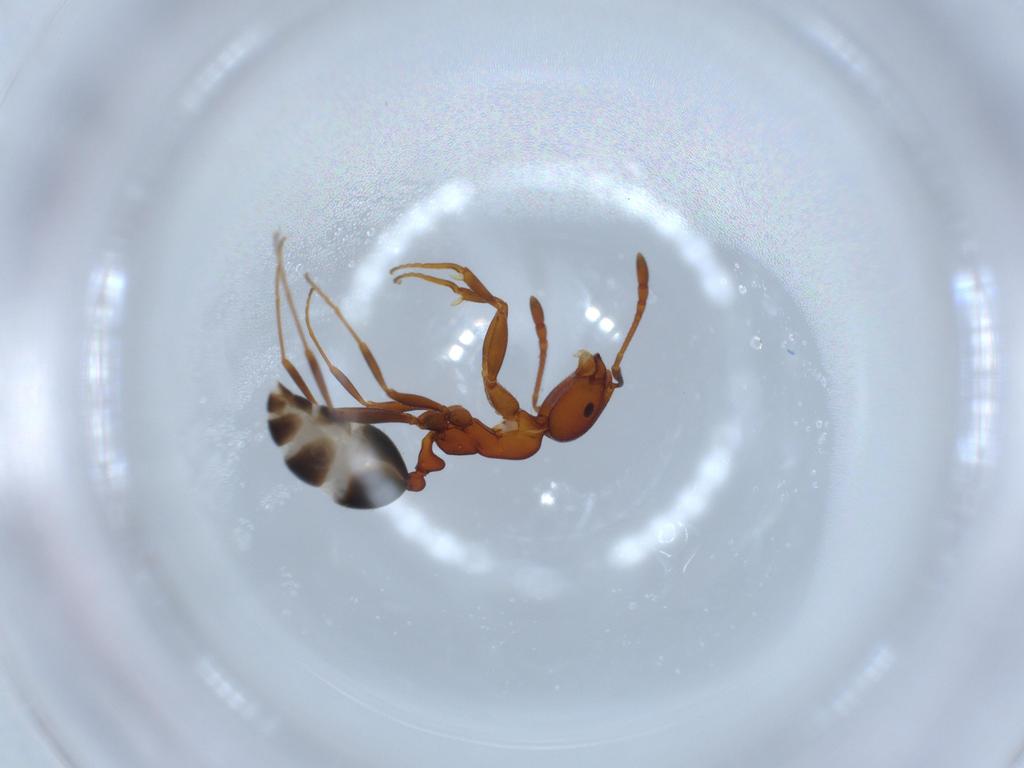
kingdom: Animalia
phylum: Arthropoda
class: Insecta
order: Hymenoptera
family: Formicidae
